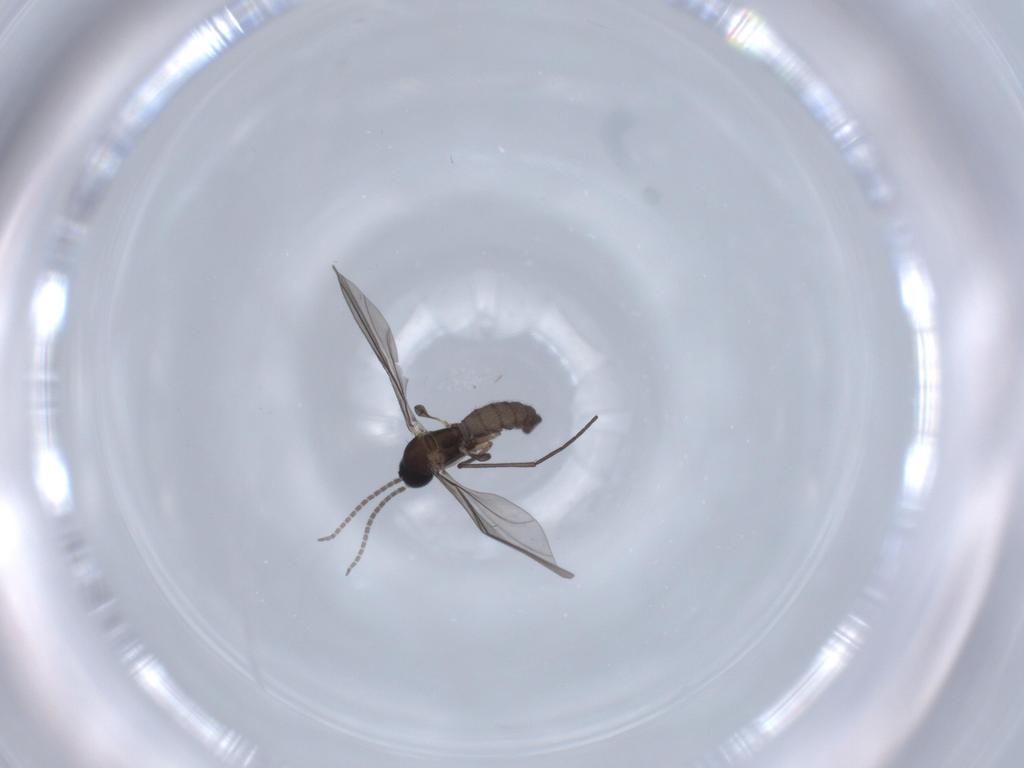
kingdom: Animalia
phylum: Arthropoda
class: Insecta
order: Diptera
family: Sciaridae
